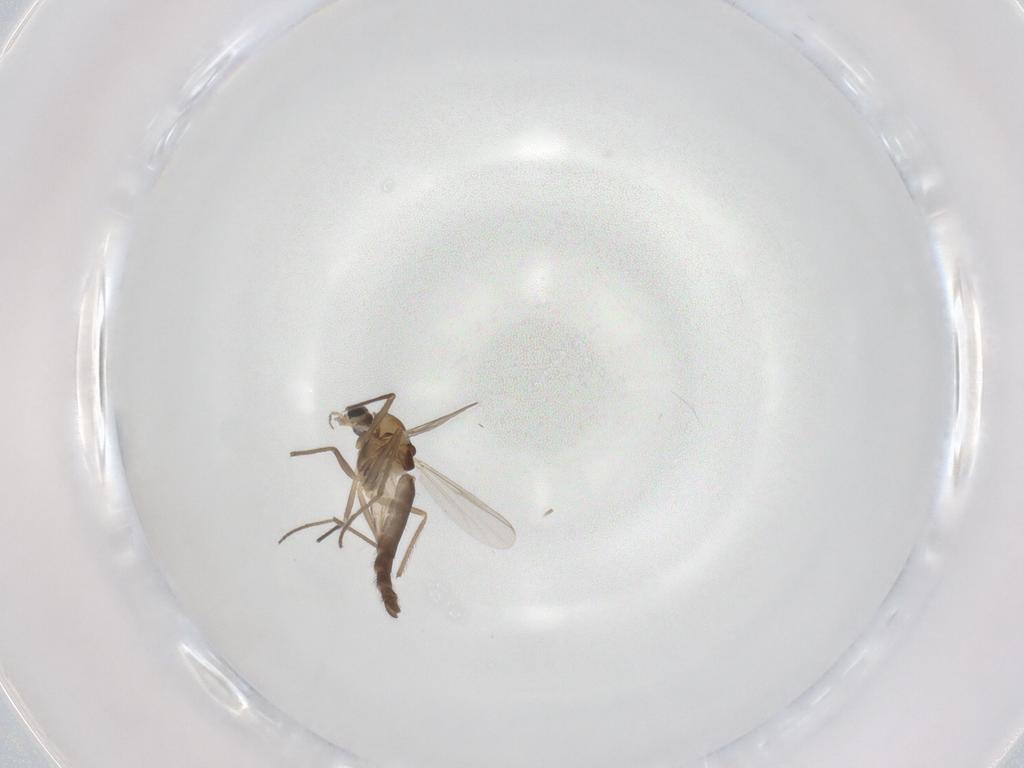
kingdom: Animalia
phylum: Arthropoda
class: Insecta
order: Diptera
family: Chironomidae
